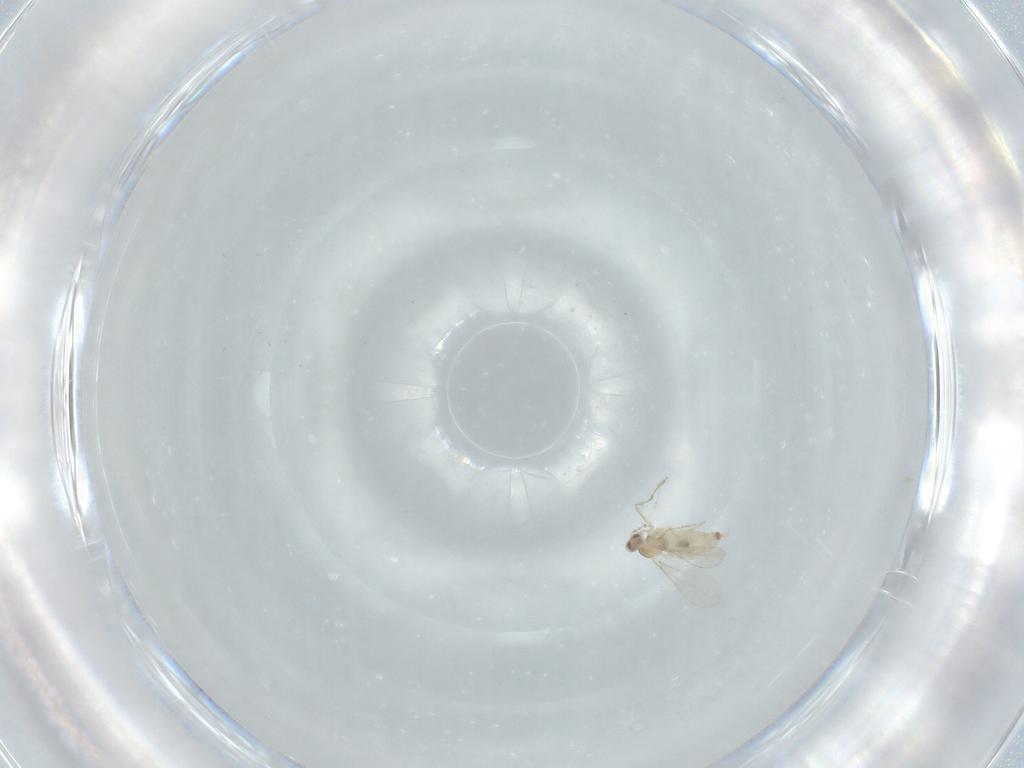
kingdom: Animalia
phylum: Arthropoda
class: Insecta
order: Diptera
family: Cecidomyiidae
